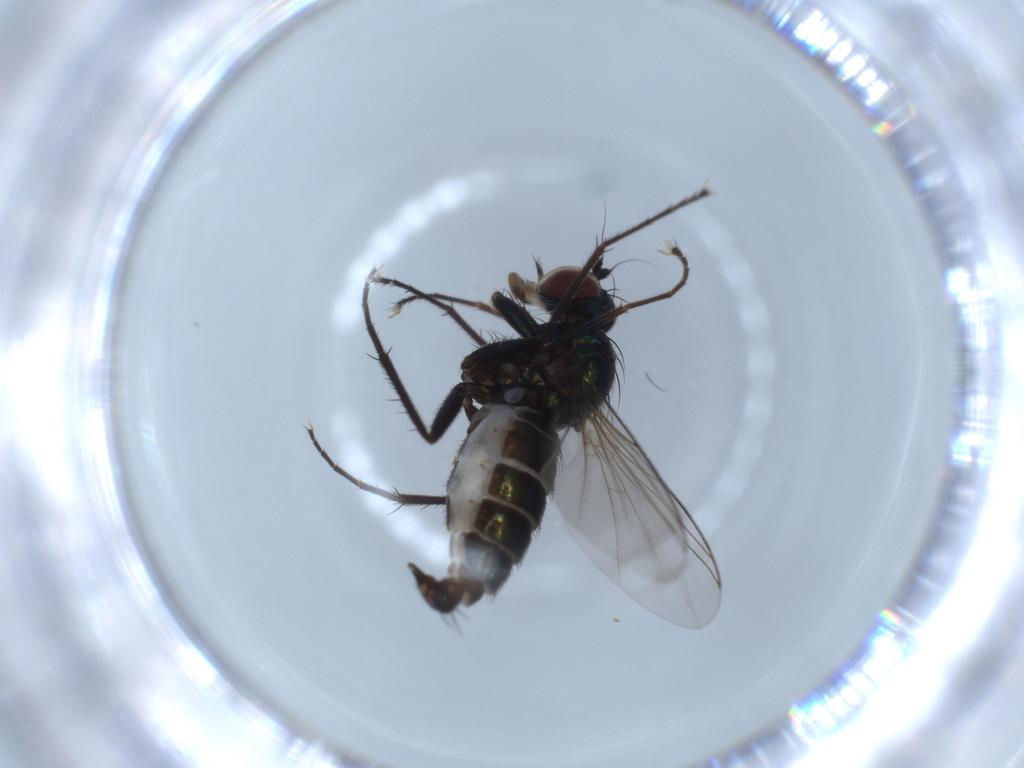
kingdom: Animalia
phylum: Arthropoda
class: Insecta
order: Diptera
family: Dolichopodidae
